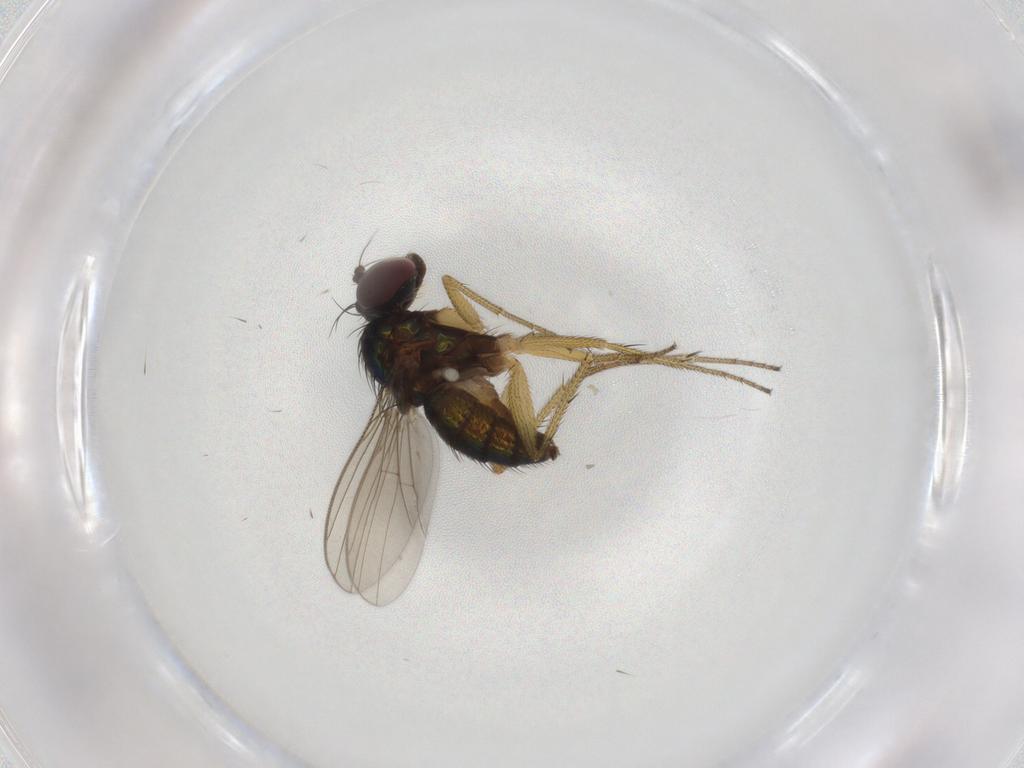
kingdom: Animalia
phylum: Arthropoda
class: Insecta
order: Diptera
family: Dolichopodidae
